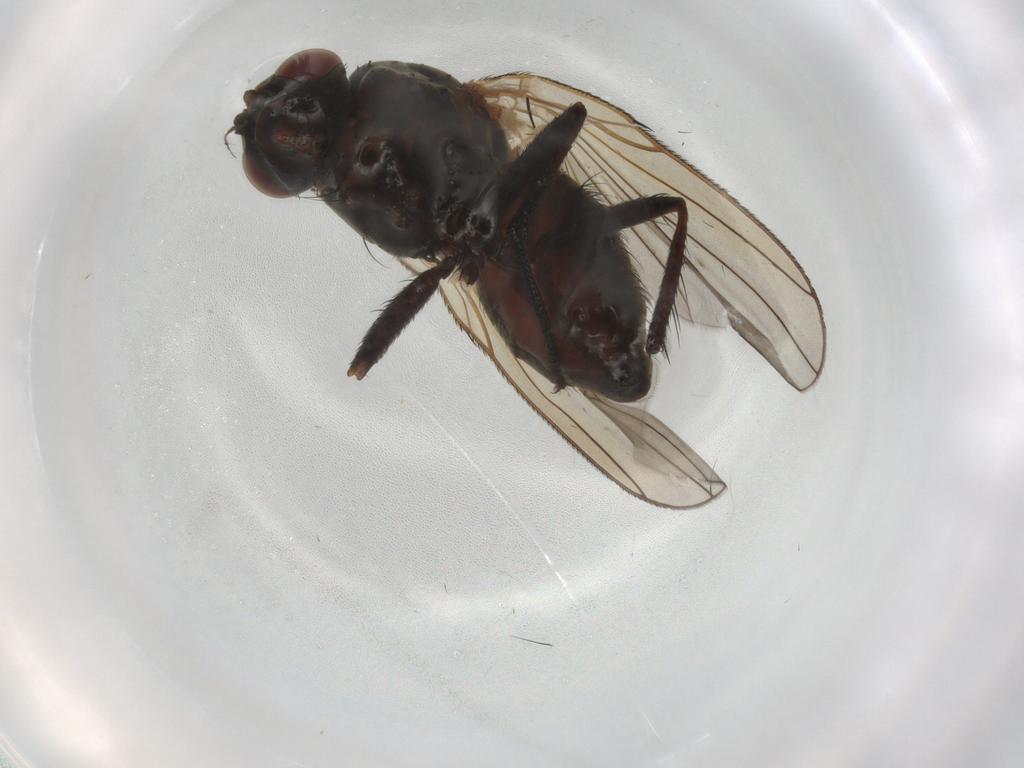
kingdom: Animalia
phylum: Arthropoda
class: Insecta
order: Diptera
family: Anthomyiidae
